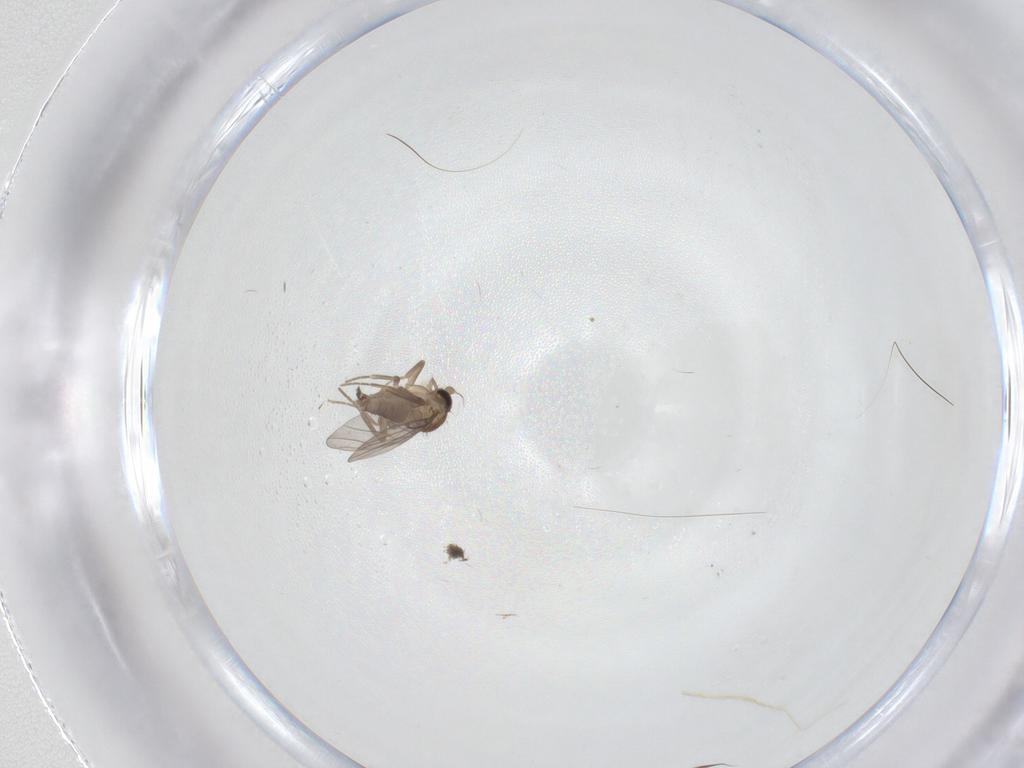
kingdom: Animalia
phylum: Arthropoda
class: Insecta
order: Diptera
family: Phoridae
